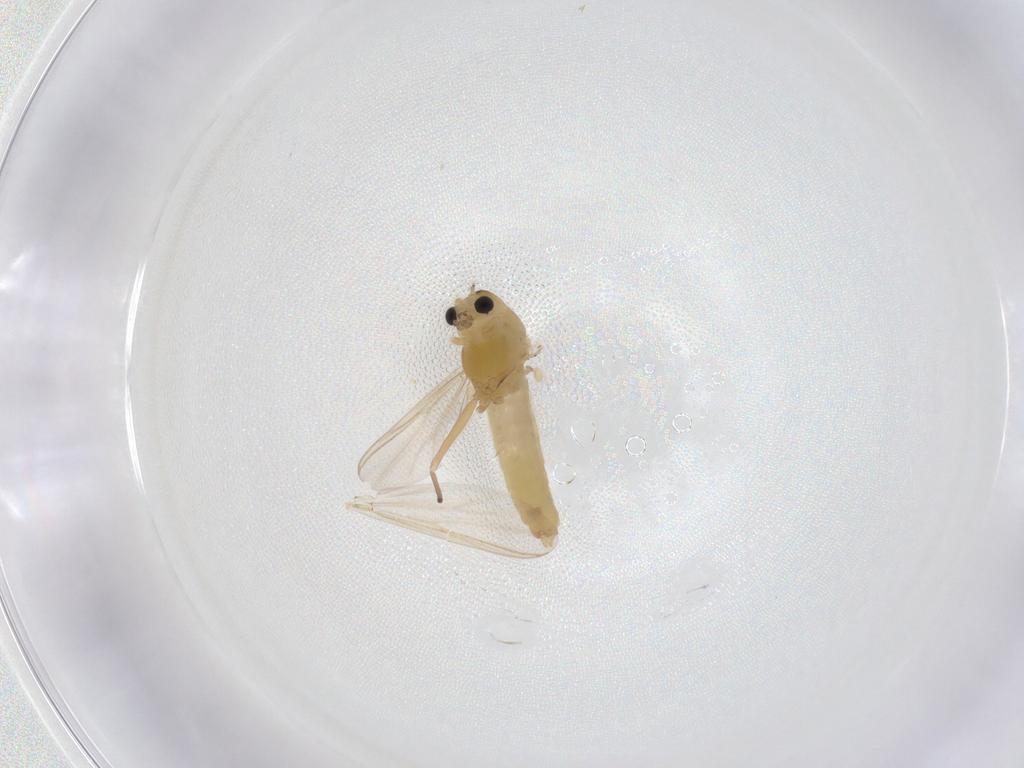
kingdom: Animalia
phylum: Arthropoda
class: Insecta
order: Diptera
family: Chironomidae
